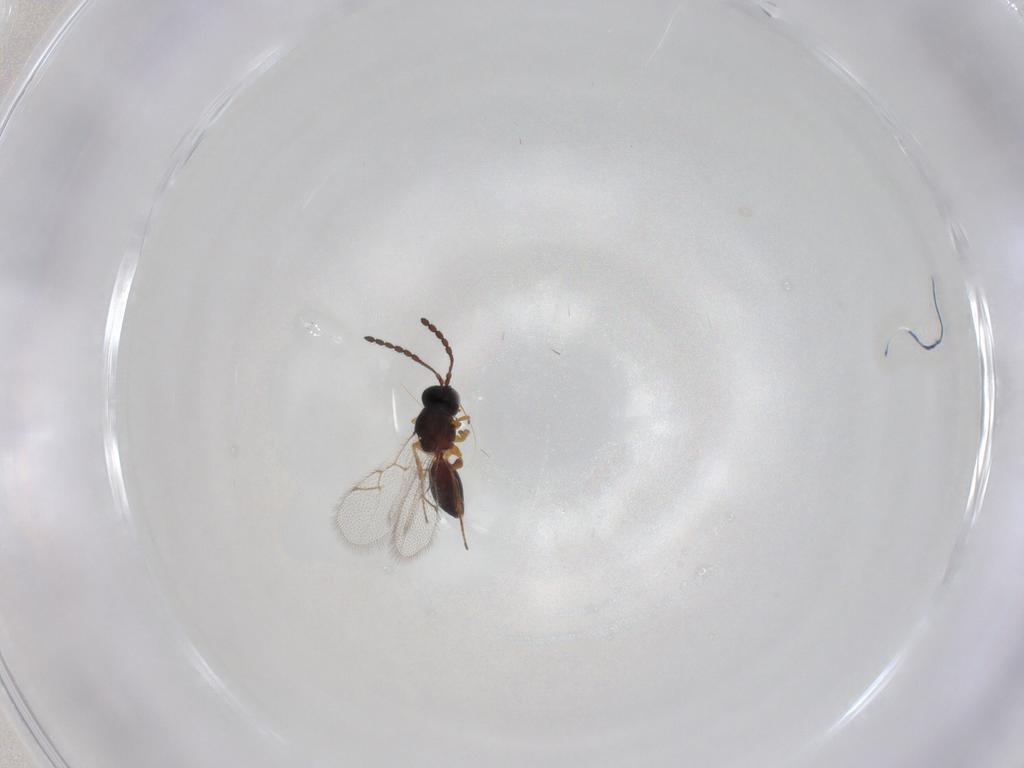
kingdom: Animalia
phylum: Arthropoda
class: Insecta
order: Hymenoptera
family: Figitidae
